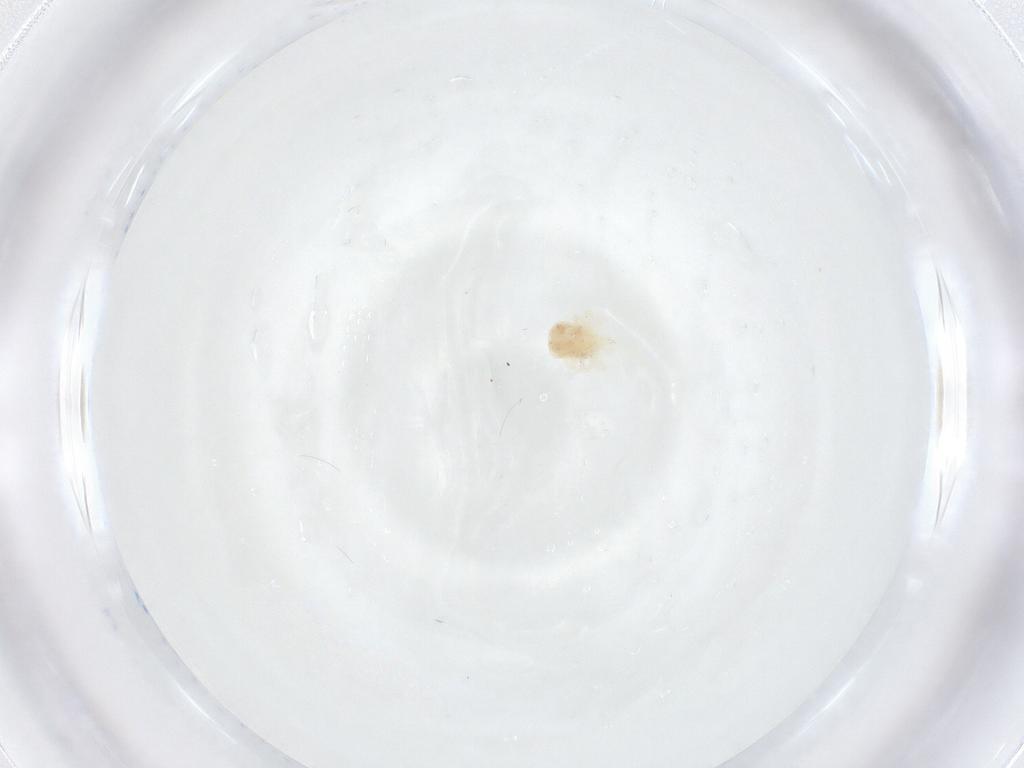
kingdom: Animalia
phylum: Arthropoda
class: Arachnida
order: Trombidiformes
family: Anystidae
